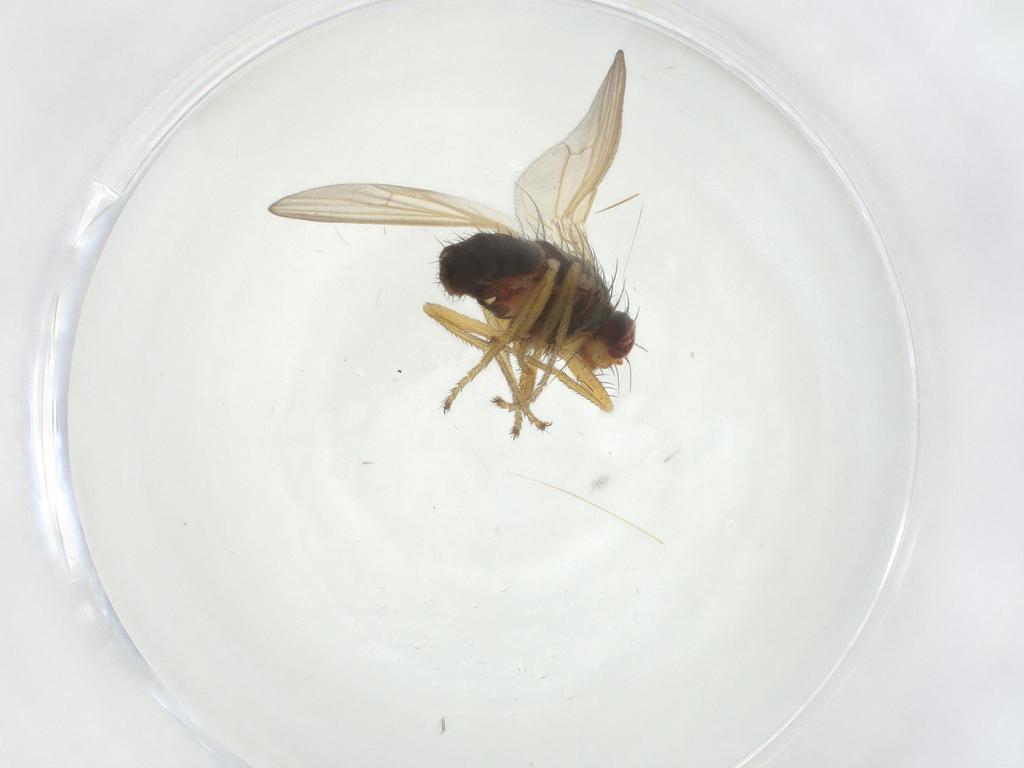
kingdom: Animalia
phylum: Arthropoda
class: Insecta
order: Diptera
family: Heleomyzidae
